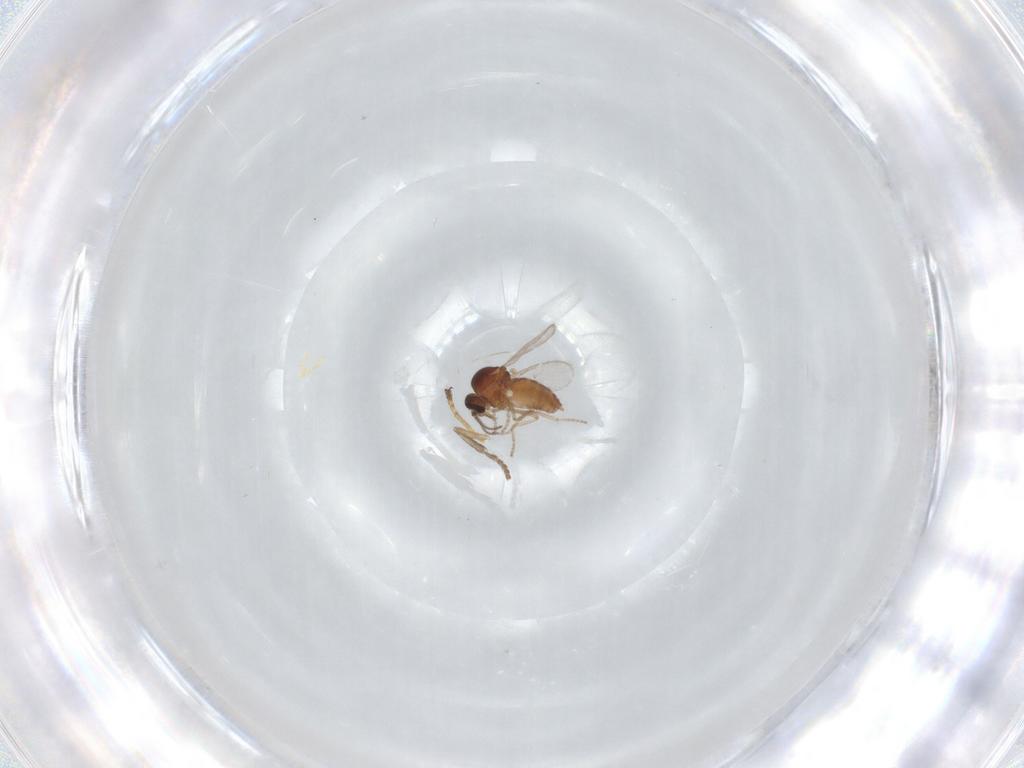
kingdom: Animalia
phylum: Arthropoda
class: Insecta
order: Diptera
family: Ceratopogonidae
